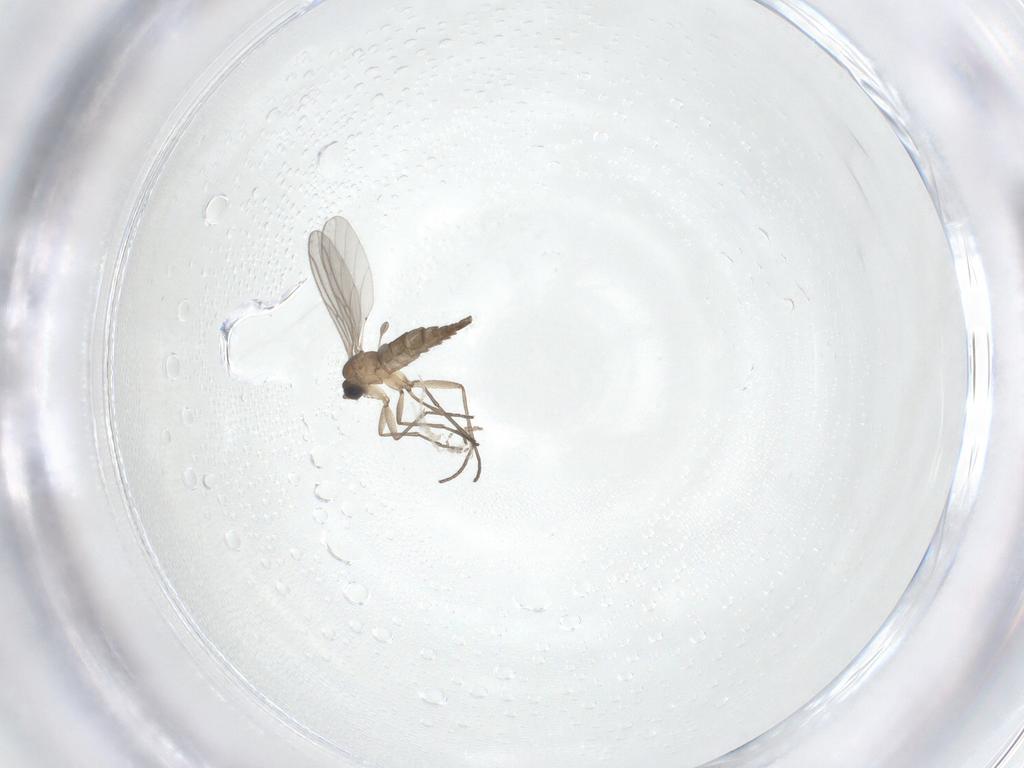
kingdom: Animalia
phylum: Arthropoda
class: Insecta
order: Diptera
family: Sciaridae
